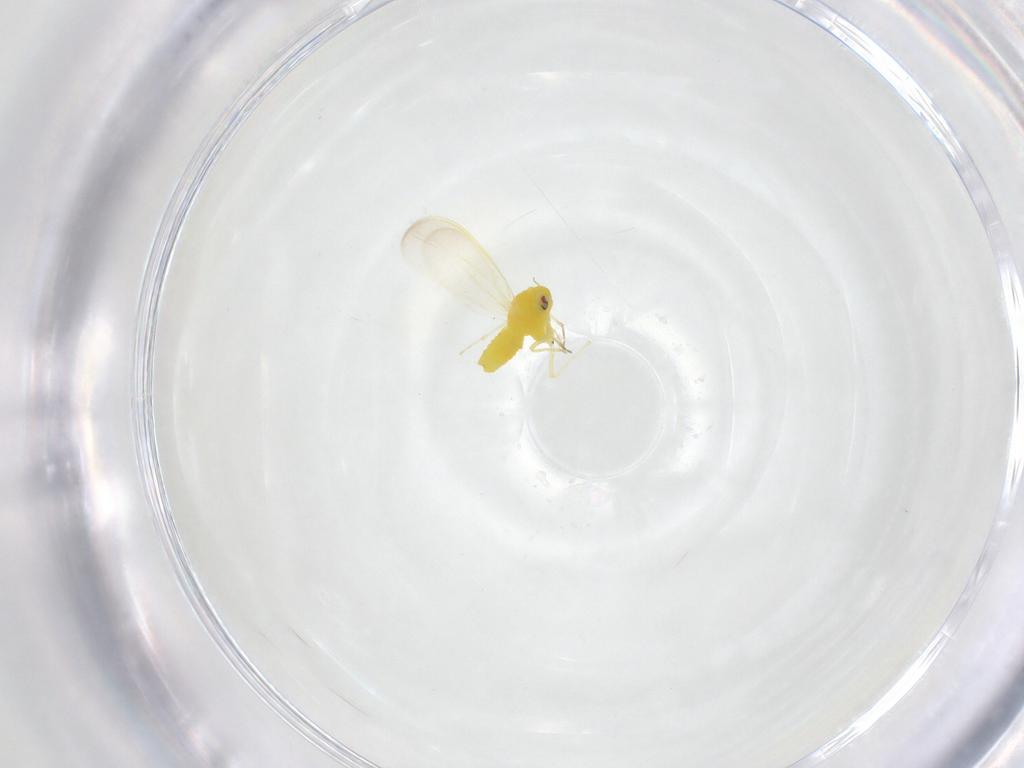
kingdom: Animalia
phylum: Arthropoda
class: Insecta
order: Hemiptera
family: Aleyrodidae
